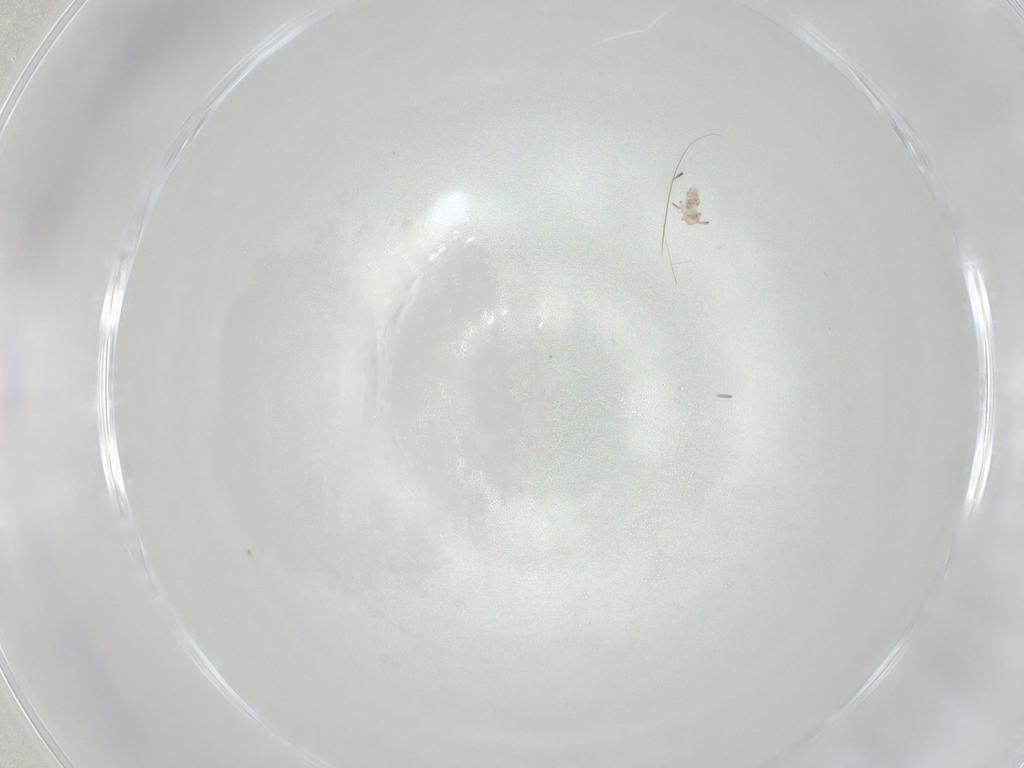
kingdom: Animalia
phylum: Arthropoda
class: Collembola
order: Symphypleona
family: Bourletiellidae
